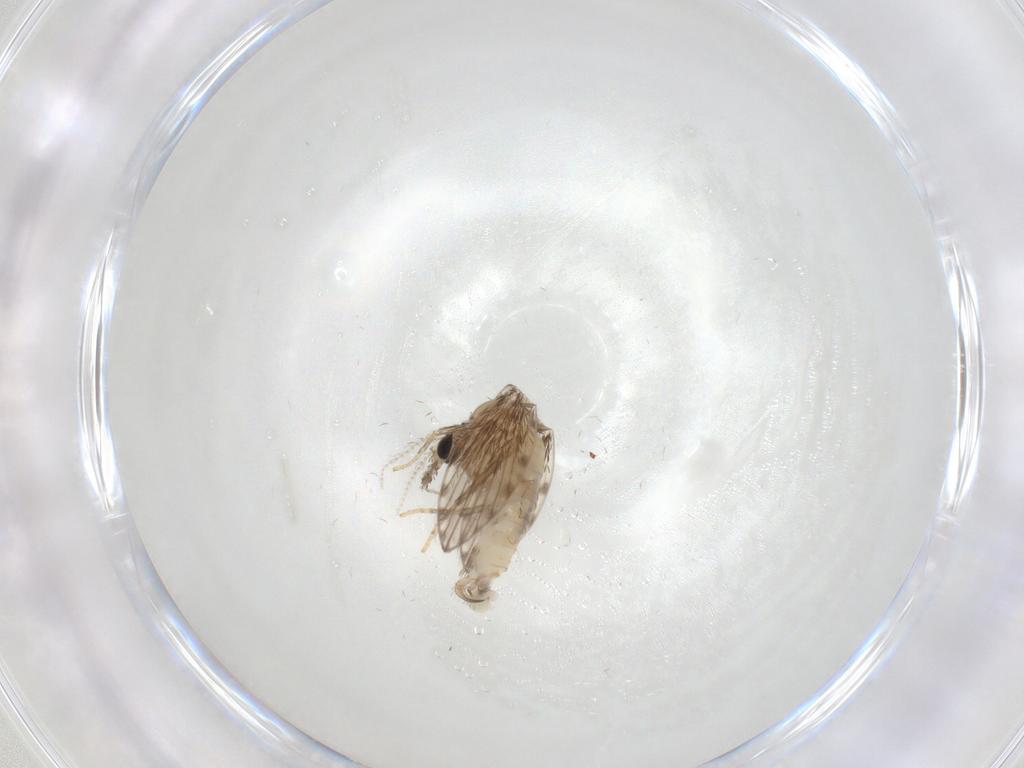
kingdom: Animalia
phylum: Arthropoda
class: Insecta
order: Diptera
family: Psychodidae
